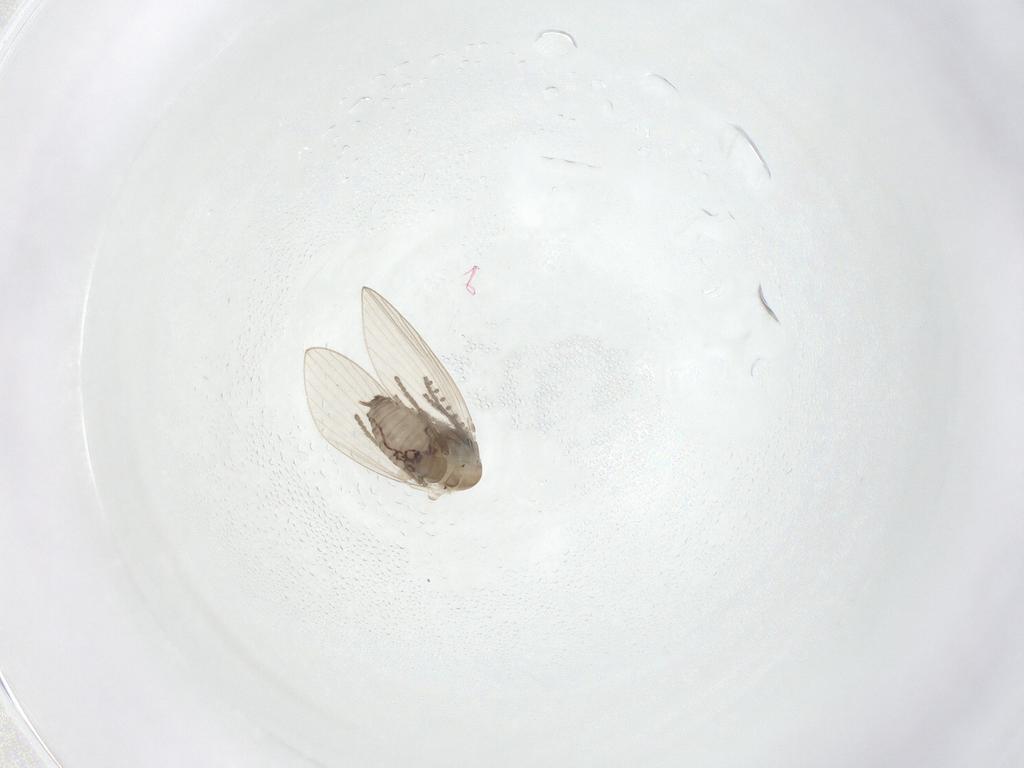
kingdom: Animalia
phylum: Arthropoda
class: Insecta
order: Diptera
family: Psychodidae
